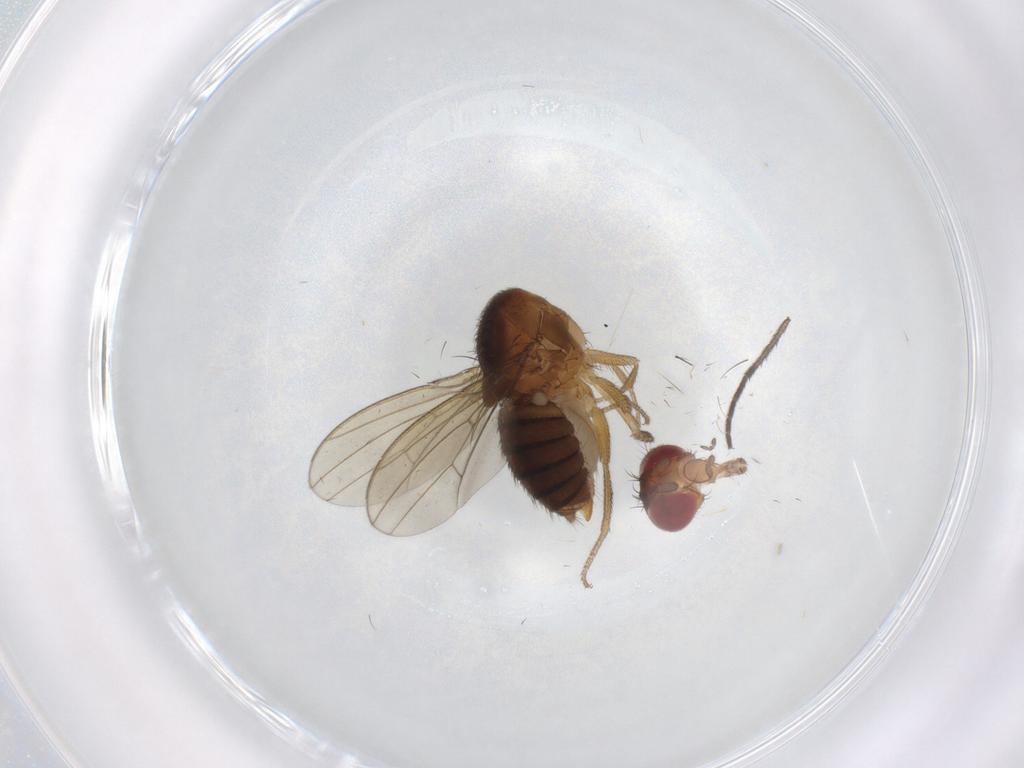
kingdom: Animalia
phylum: Arthropoda
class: Insecta
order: Diptera
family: Drosophilidae
